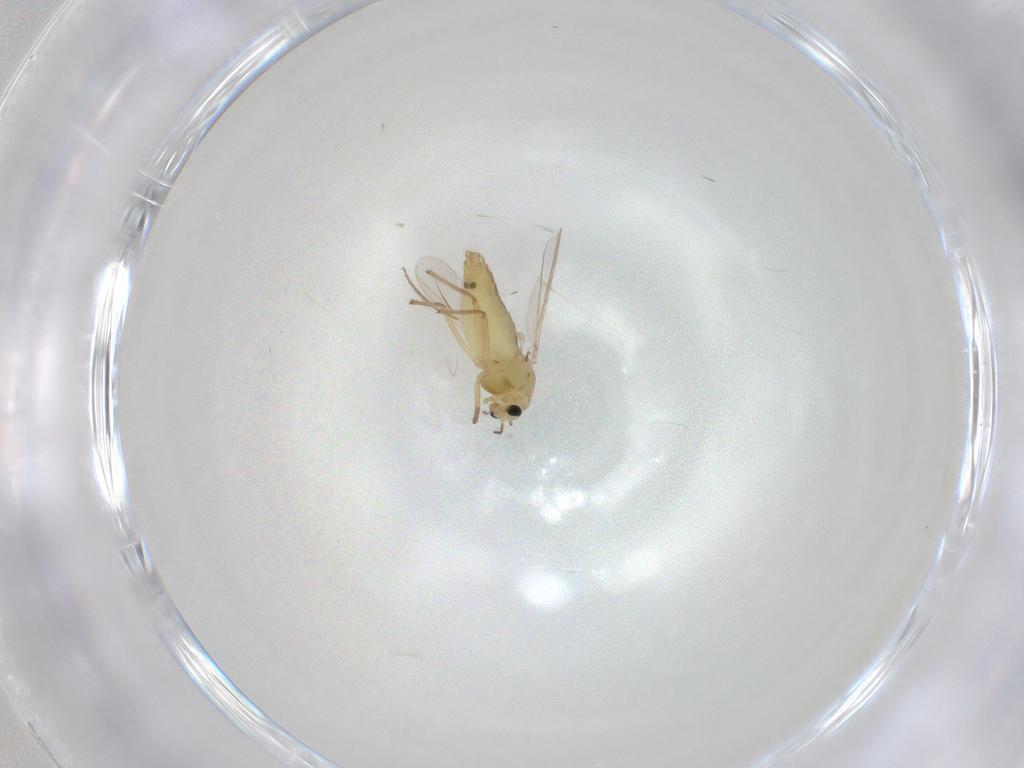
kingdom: Animalia
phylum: Arthropoda
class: Insecta
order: Diptera
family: Chironomidae
